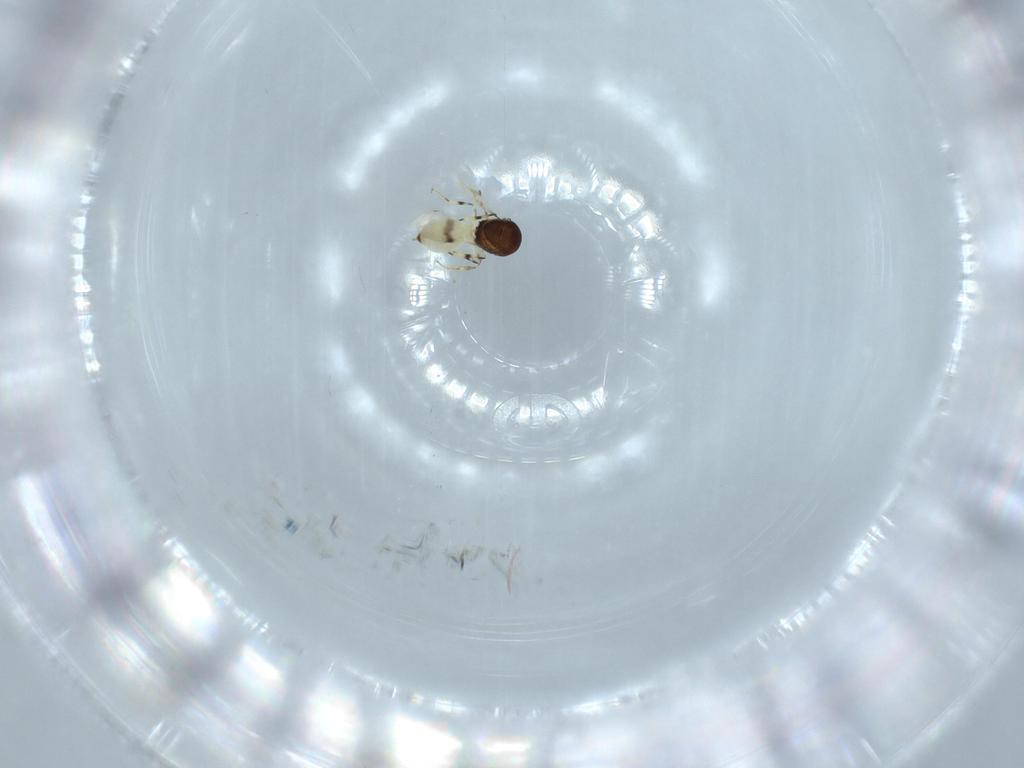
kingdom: Animalia
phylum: Arthropoda
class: Insecta
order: Hymenoptera
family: Scelionidae
